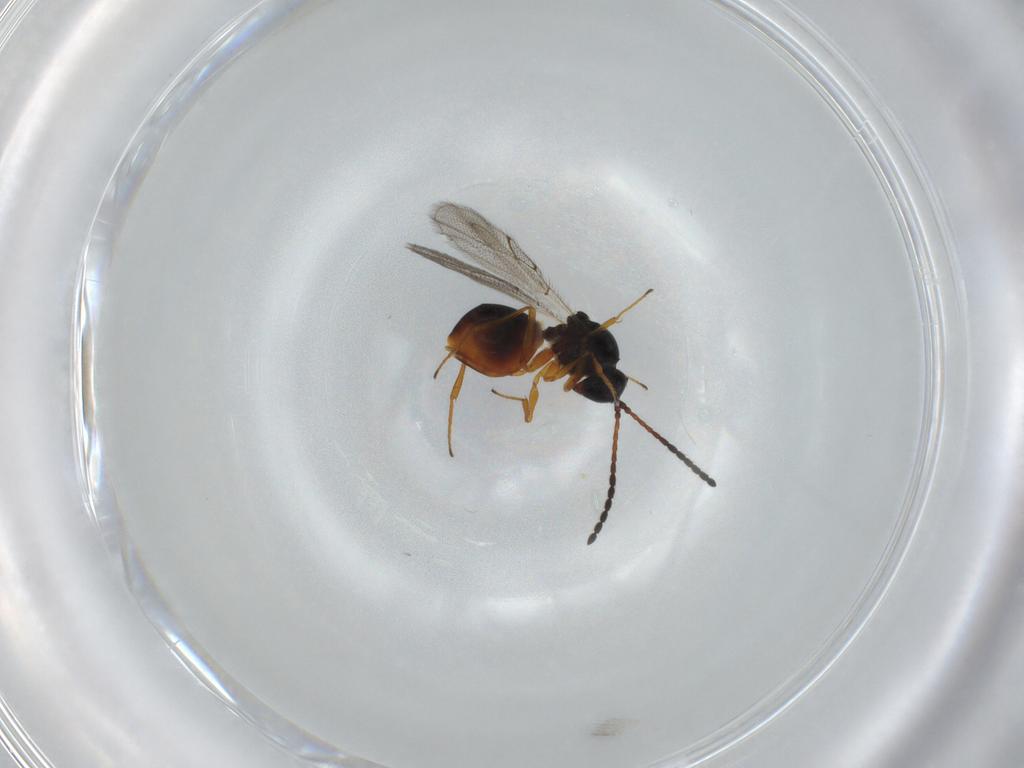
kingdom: Animalia
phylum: Arthropoda
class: Insecta
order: Hymenoptera
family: Figitidae
